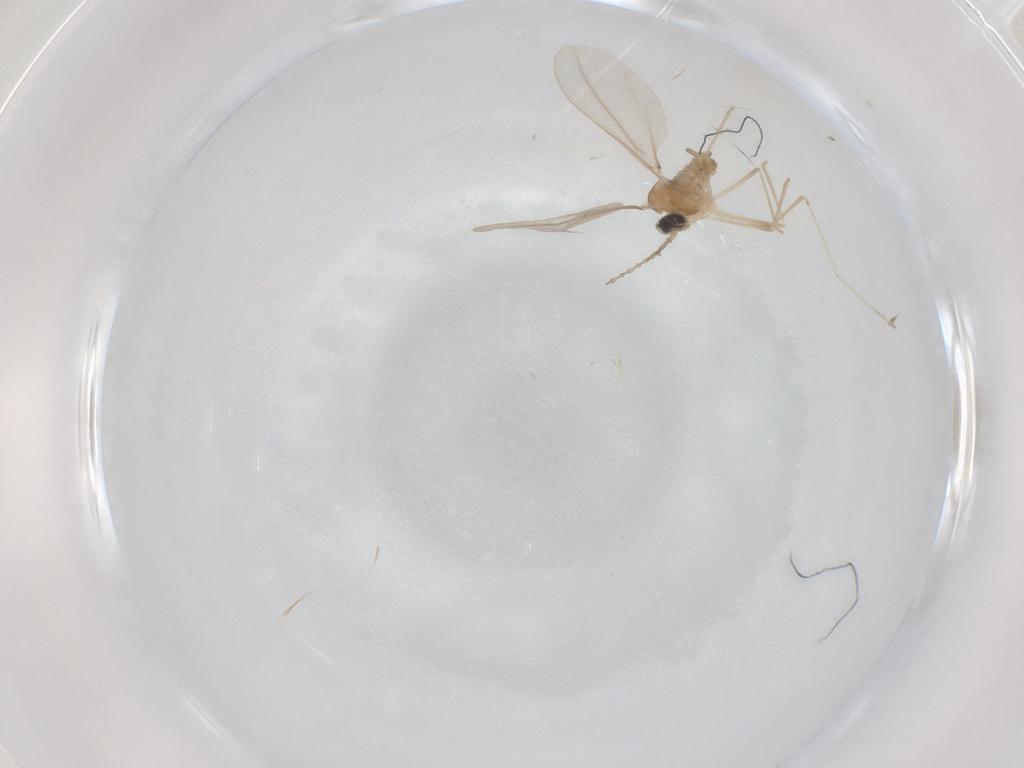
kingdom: Animalia
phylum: Arthropoda
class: Insecta
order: Diptera
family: Cecidomyiidae
